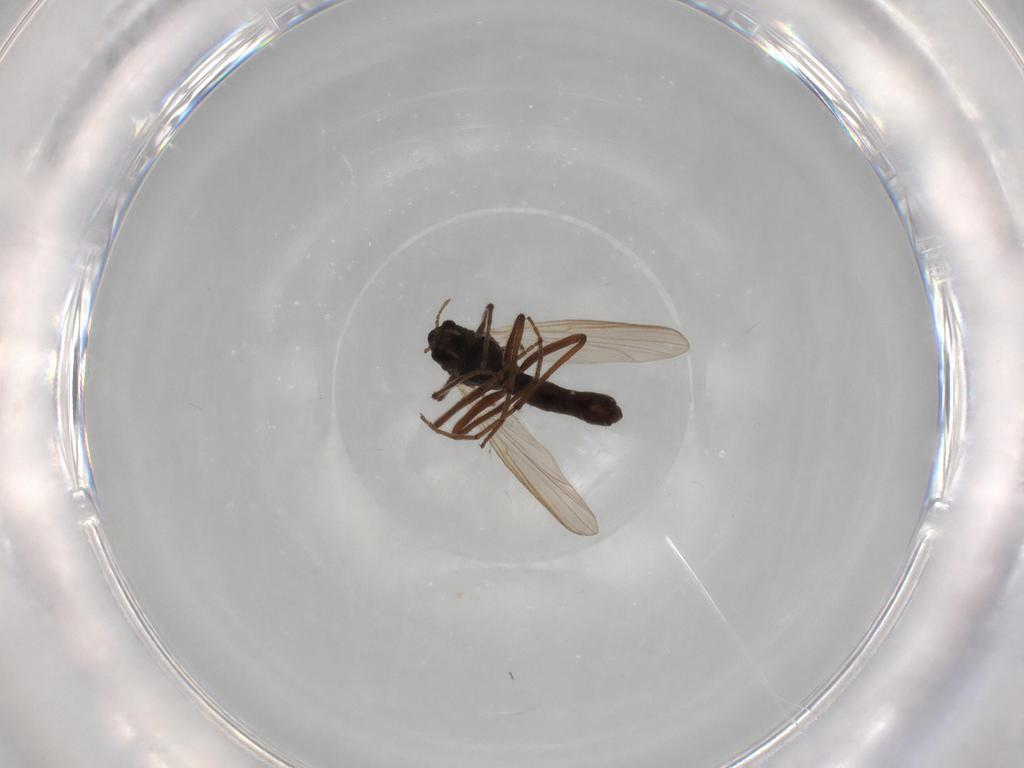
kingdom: Animalia
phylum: Arthropoda
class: Insecta
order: Diptera
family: Chironomidae
